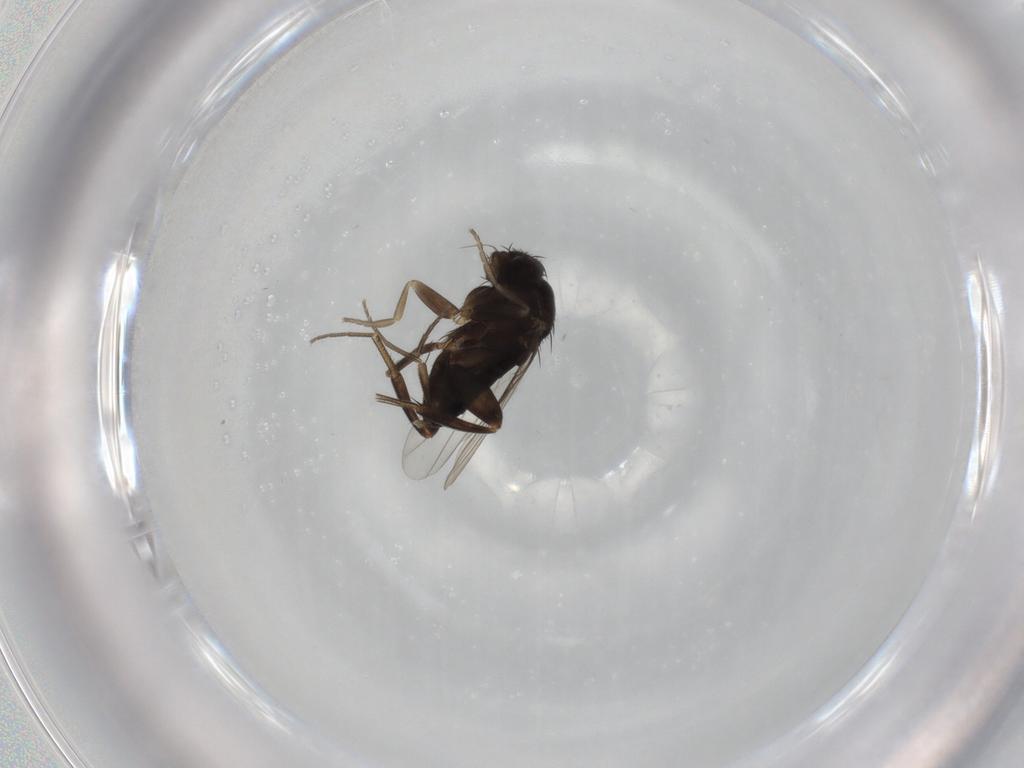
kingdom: Animalia
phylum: Arthropoda
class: Insecta
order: Diptera
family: Phoridae
